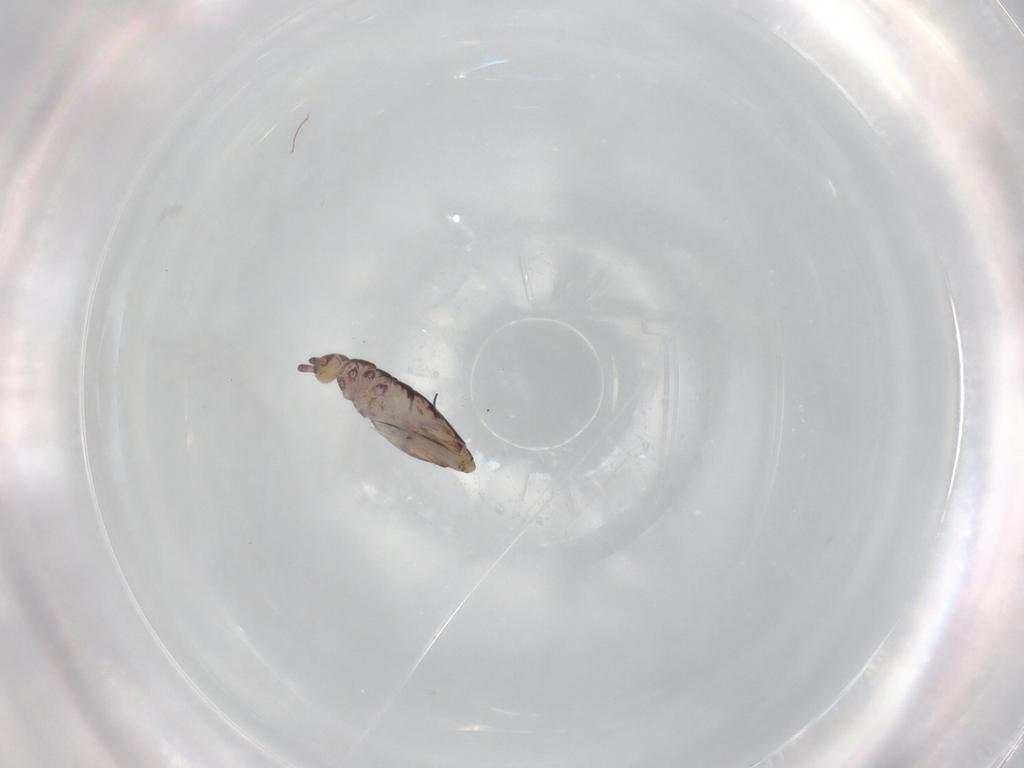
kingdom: Animalia
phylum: Arthropoda
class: Collembola
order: Entomobryomorpha
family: Entomobryidae
